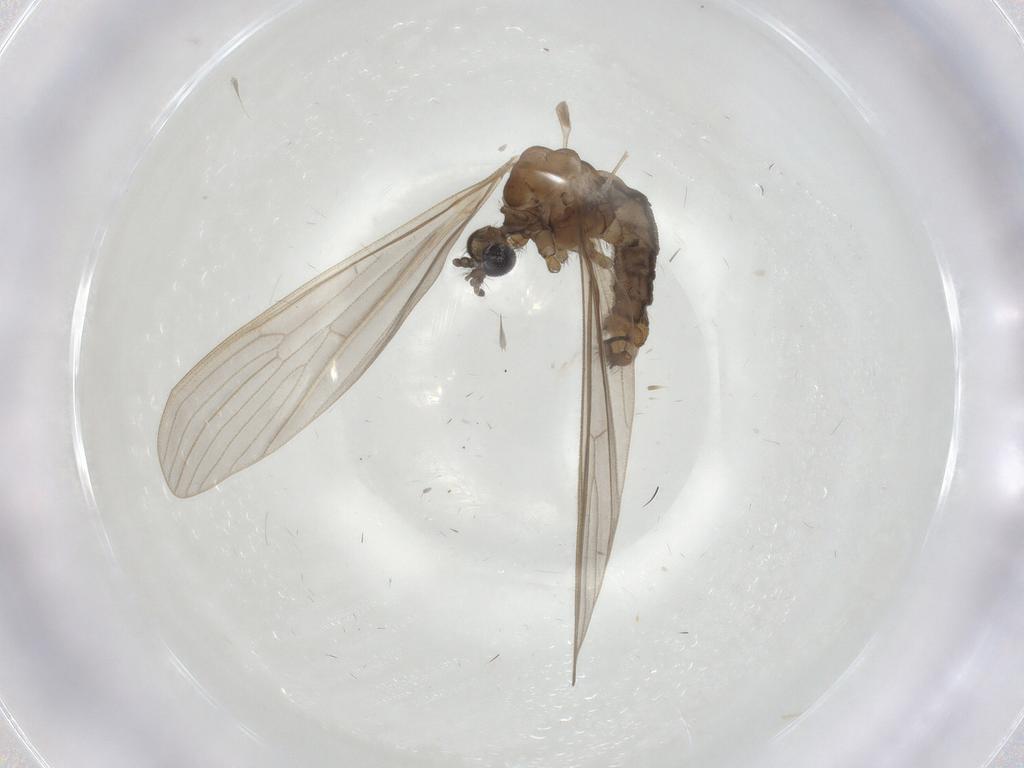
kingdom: Animalia
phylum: Arthropoda
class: Insecta
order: Diptera
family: Limoniidae
